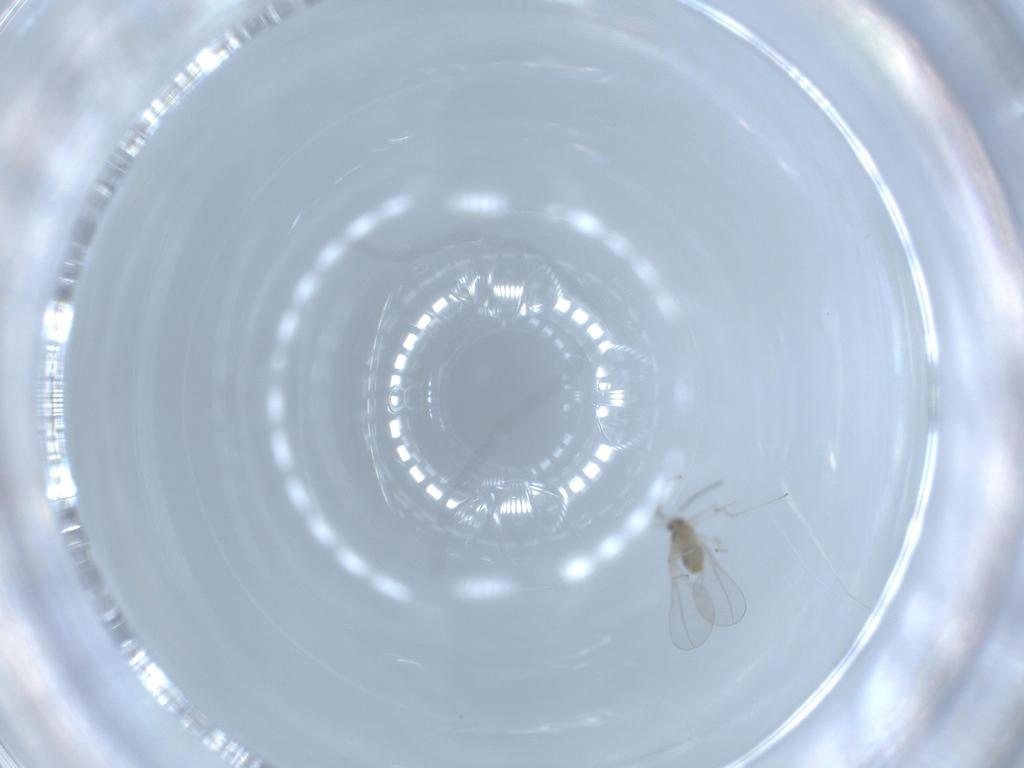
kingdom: Animalia
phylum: Arthropoda
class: Insecta
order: Diptera
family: Cecidomyiidae
